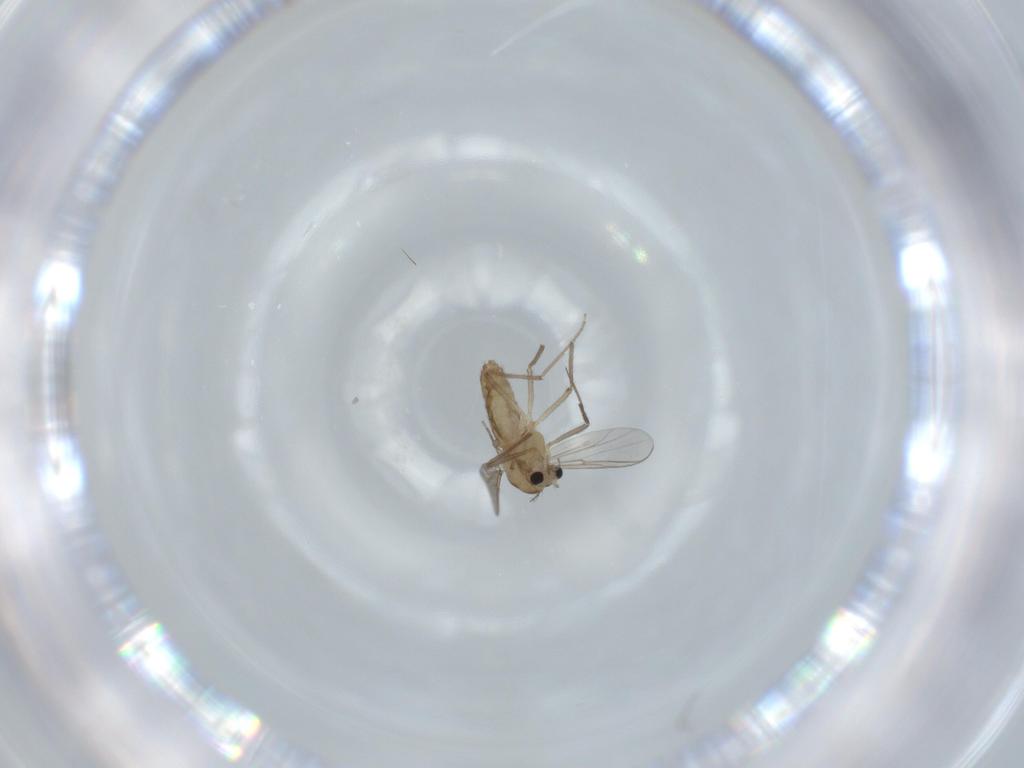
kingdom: Animalia
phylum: Arthropoda
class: Insecta
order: Diptera
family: Chironomidae
